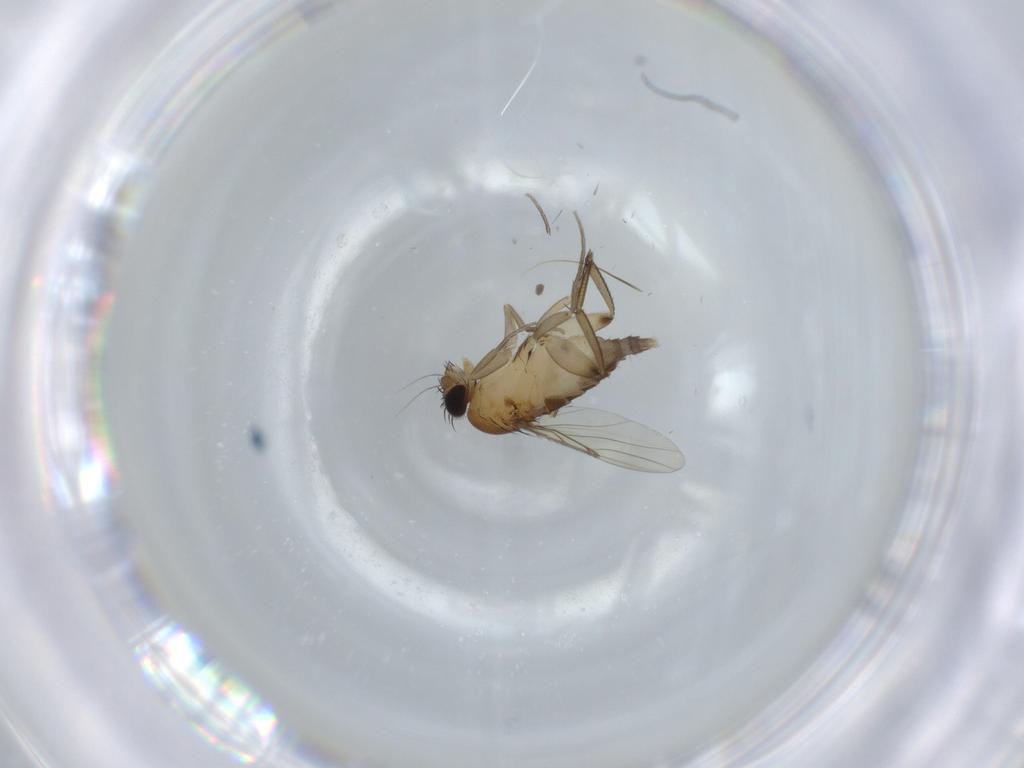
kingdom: Animalia
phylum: Arthropoda
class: Insecta
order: Diptera
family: Phoridae
